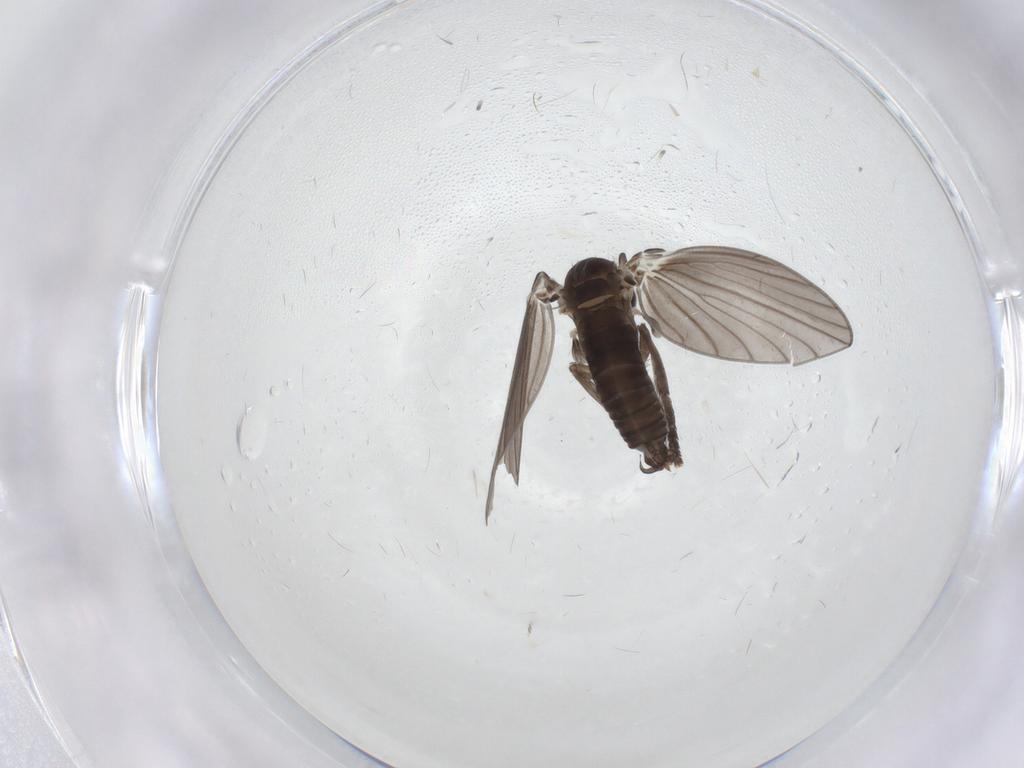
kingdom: Animalia
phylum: Arthropoda
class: Insecta
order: Diptera
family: Psychodidae
